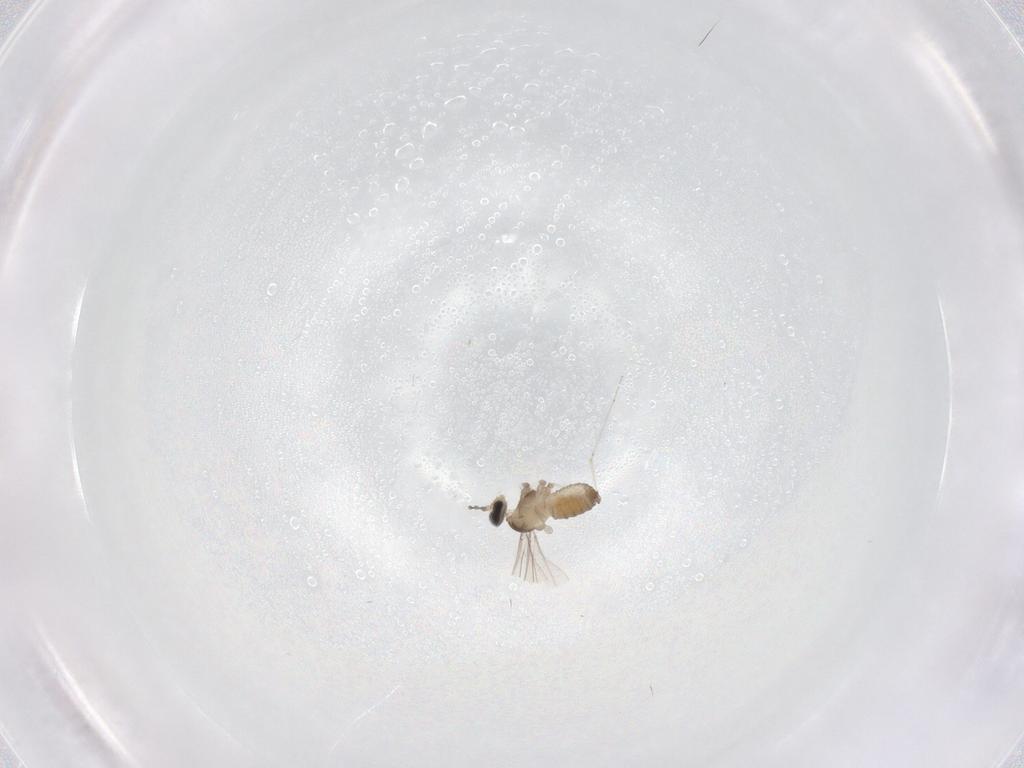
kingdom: Animalia
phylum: Arthropoda
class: Insecta
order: Diptera
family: Cecidomyiidae
